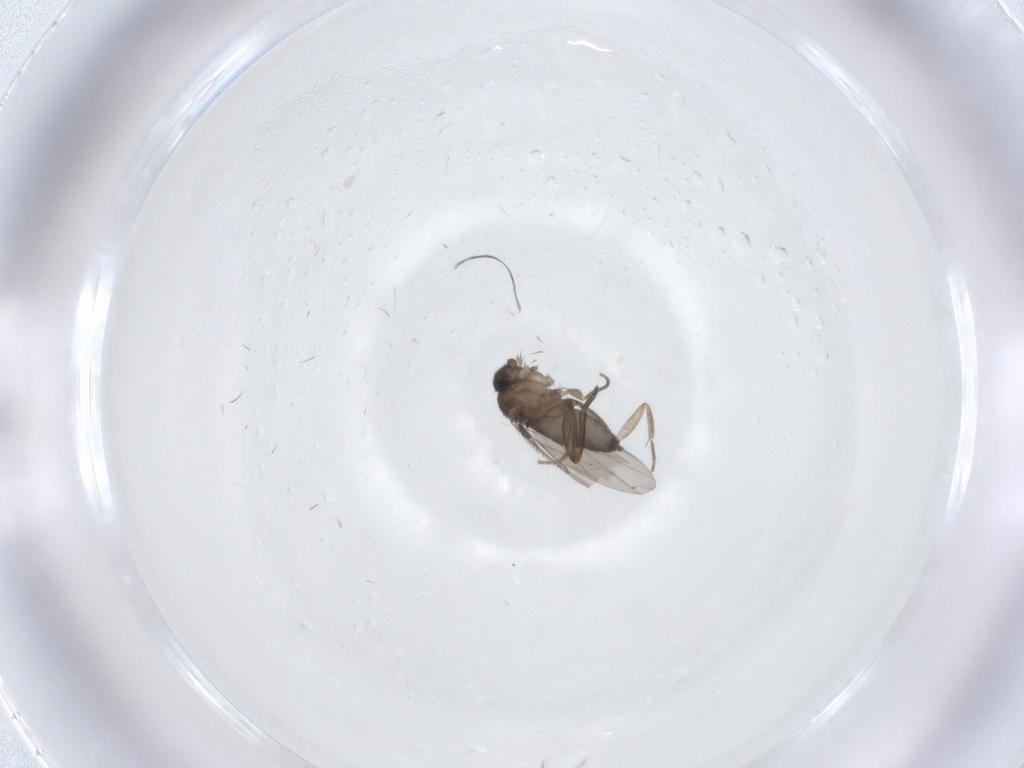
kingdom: Animalia
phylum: Arthropoda
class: Insecta
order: Diptera
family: Phoridae
